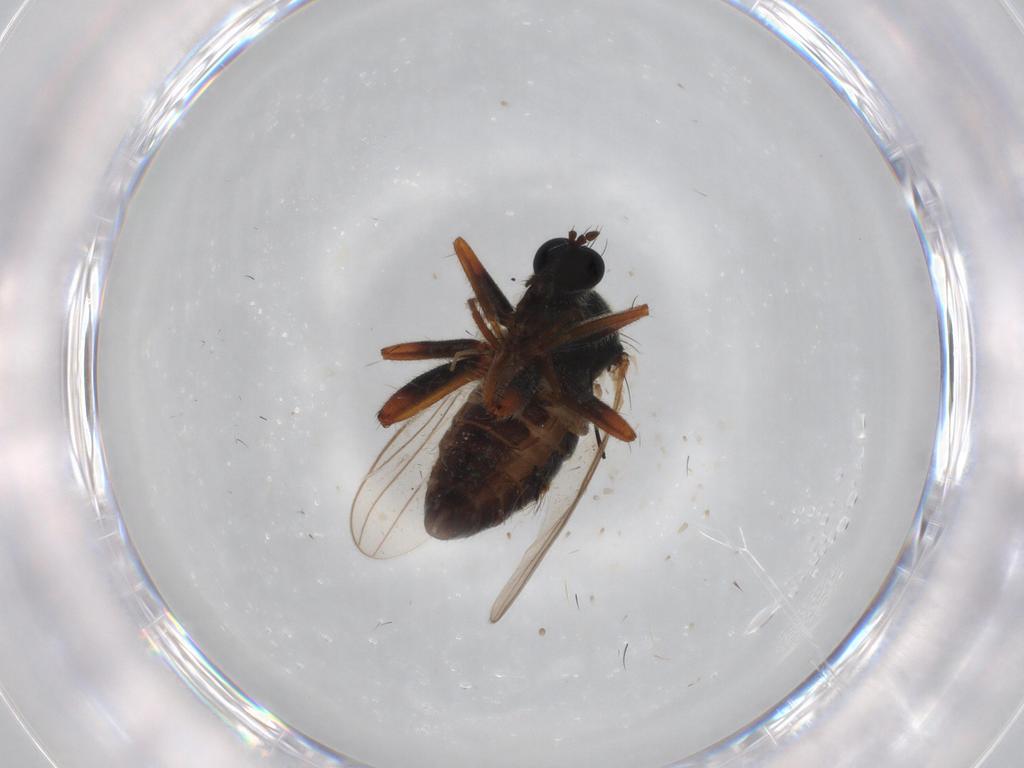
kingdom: Animalia
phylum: Arthropoda
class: Insecta
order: Diptera
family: Hybotidae
